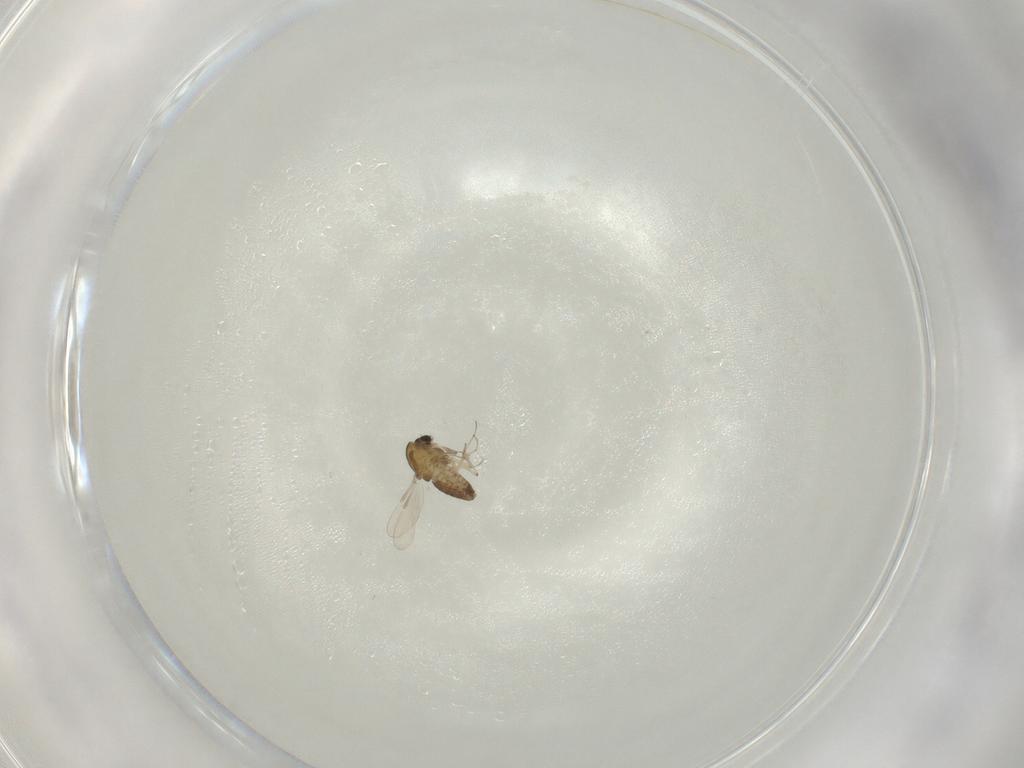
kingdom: Animalia
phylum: Arthropoda
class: Insecta
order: Diptera
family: Chironomidae
